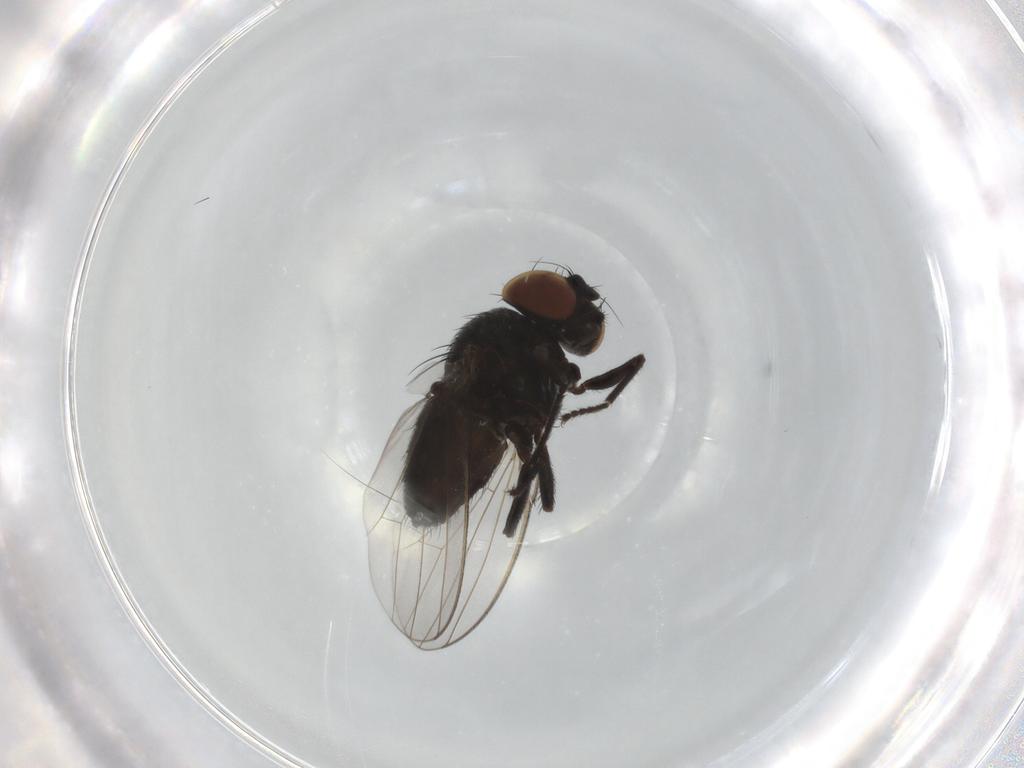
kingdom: Animalia
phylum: Arthropoda
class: Insecta
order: Diptera
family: Milichiidae
